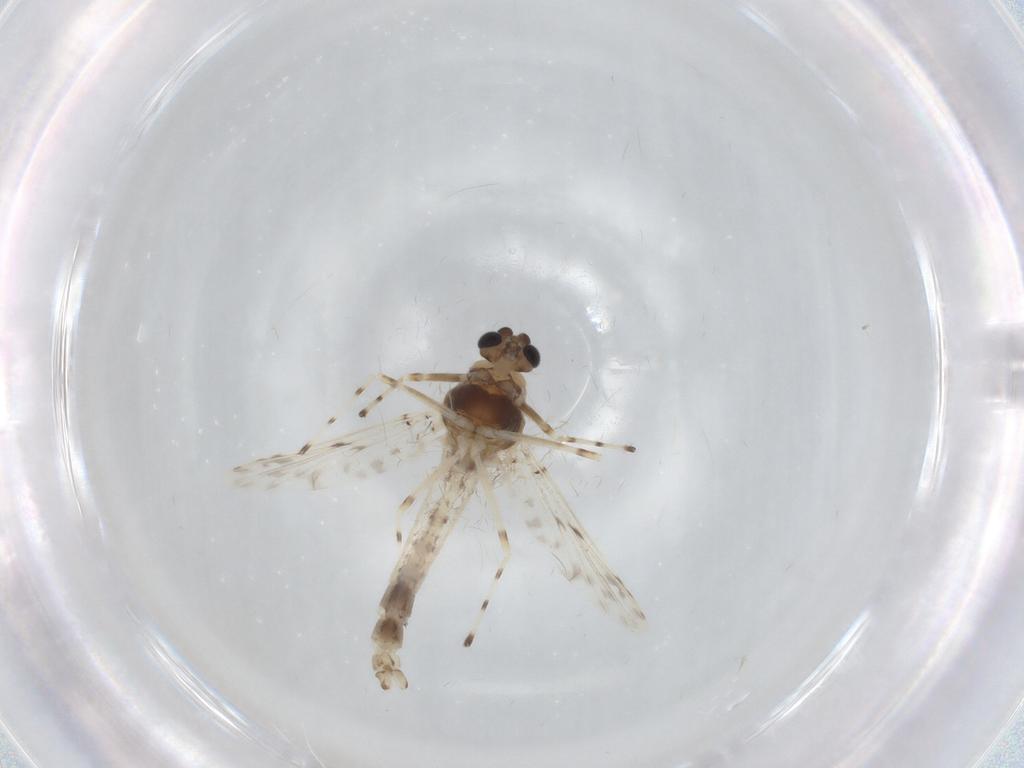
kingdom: Animalia
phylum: Arthropoda
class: Insecta
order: Diptera
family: Chironomidae
